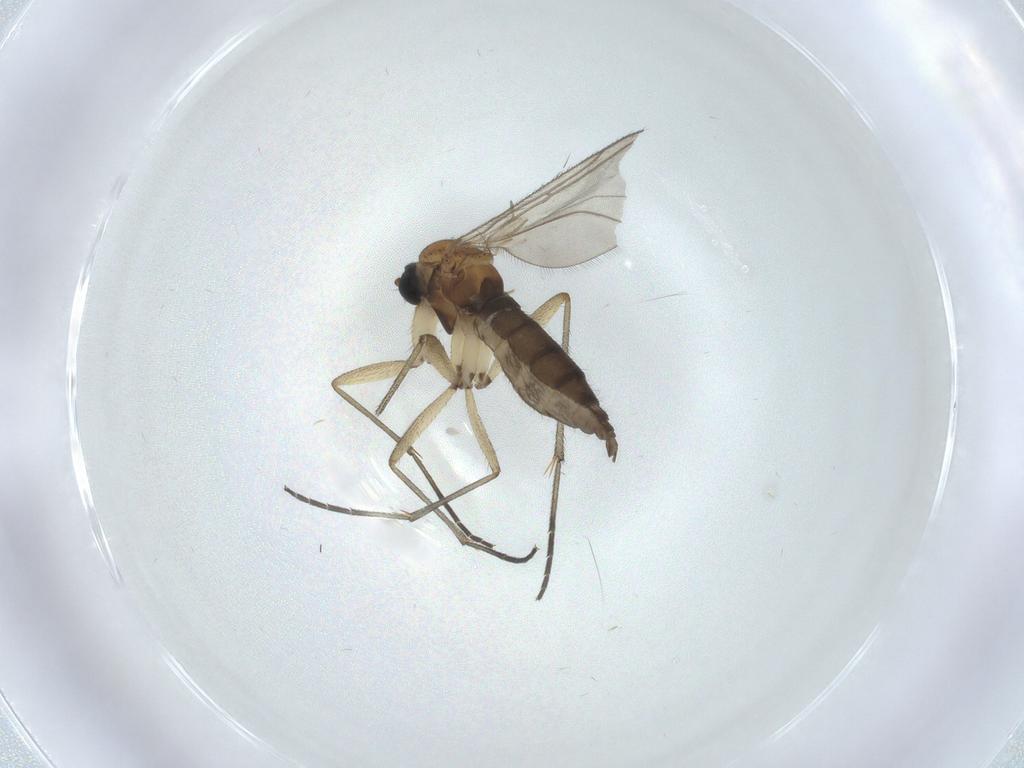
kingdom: Animalia
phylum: Arthropoda
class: Insecta
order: Diptera
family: Sciaridae
